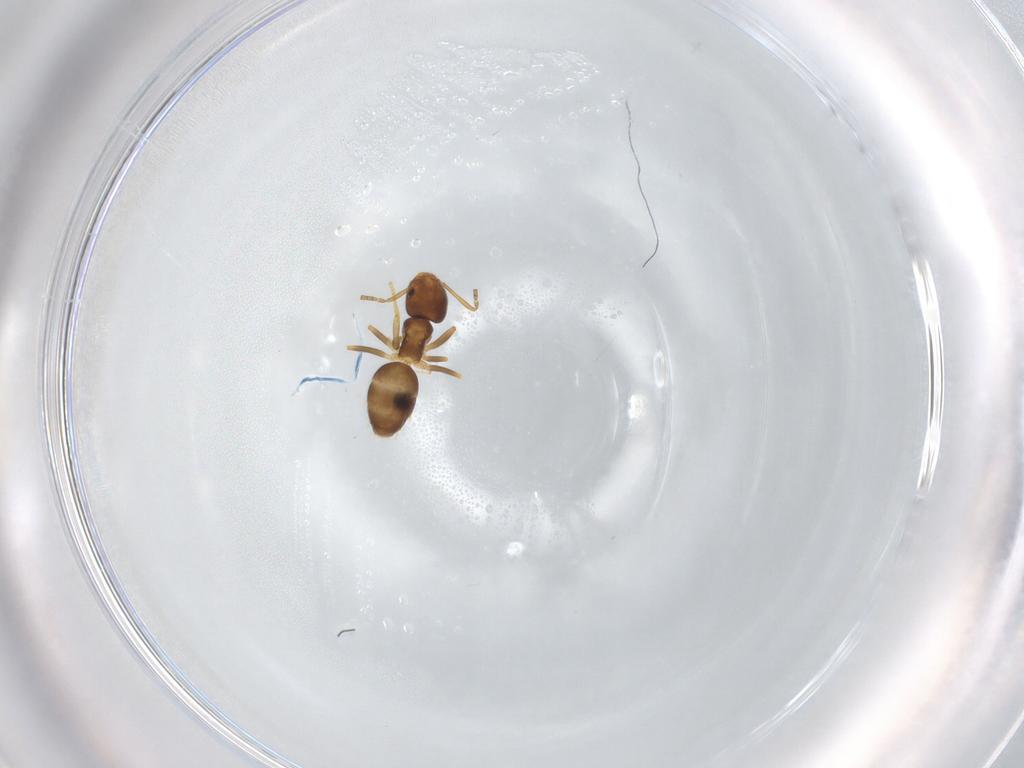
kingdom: Animalia
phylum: Arthropoda
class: Insecta
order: Hymenoptera
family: Formicidae
